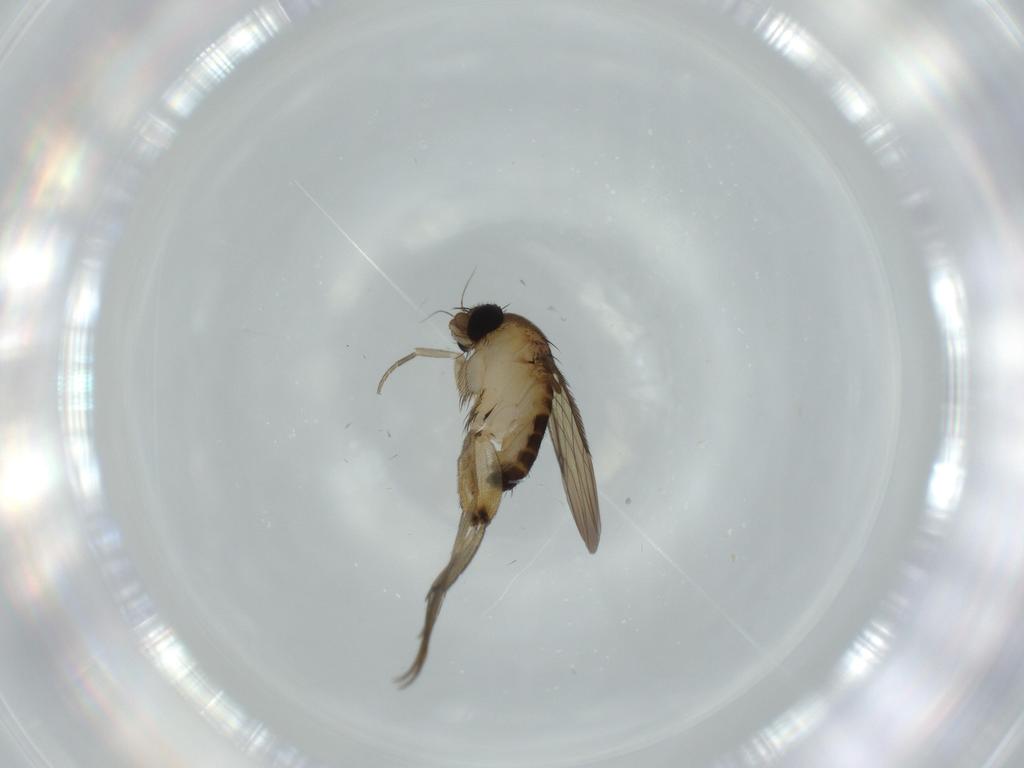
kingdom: Animalia
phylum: Arthropoda
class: Insecta
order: Diptera
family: Phoridae
